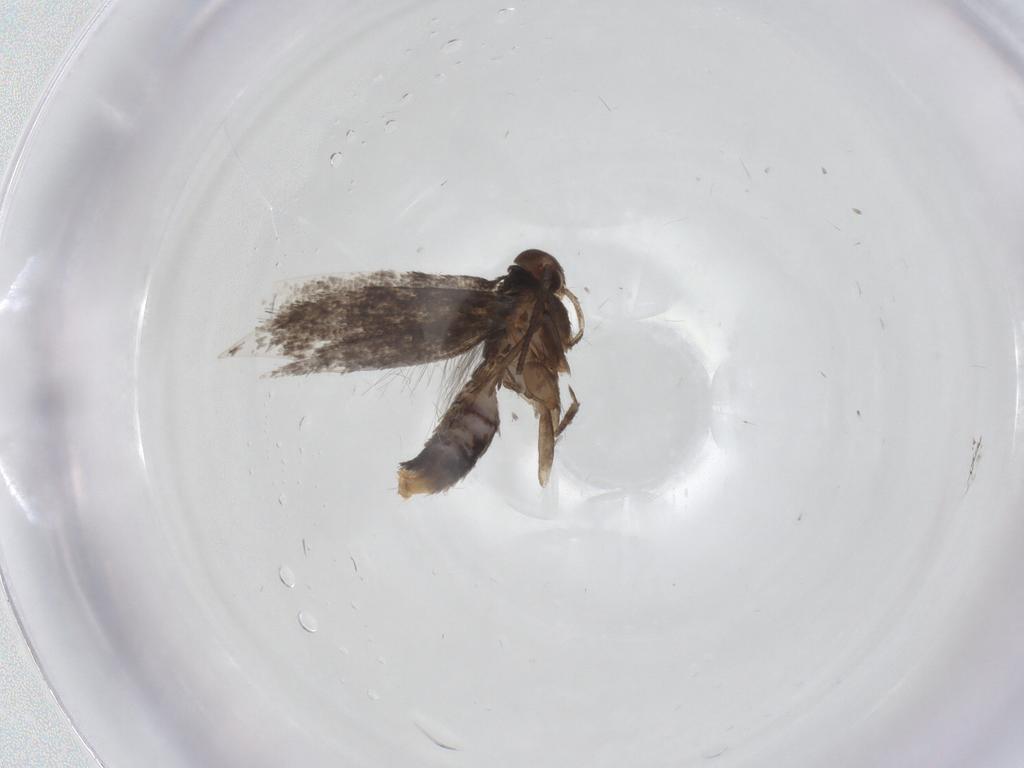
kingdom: Animalia
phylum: Arthropoda
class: Insecta
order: Lepidoptera
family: Elachistidae
